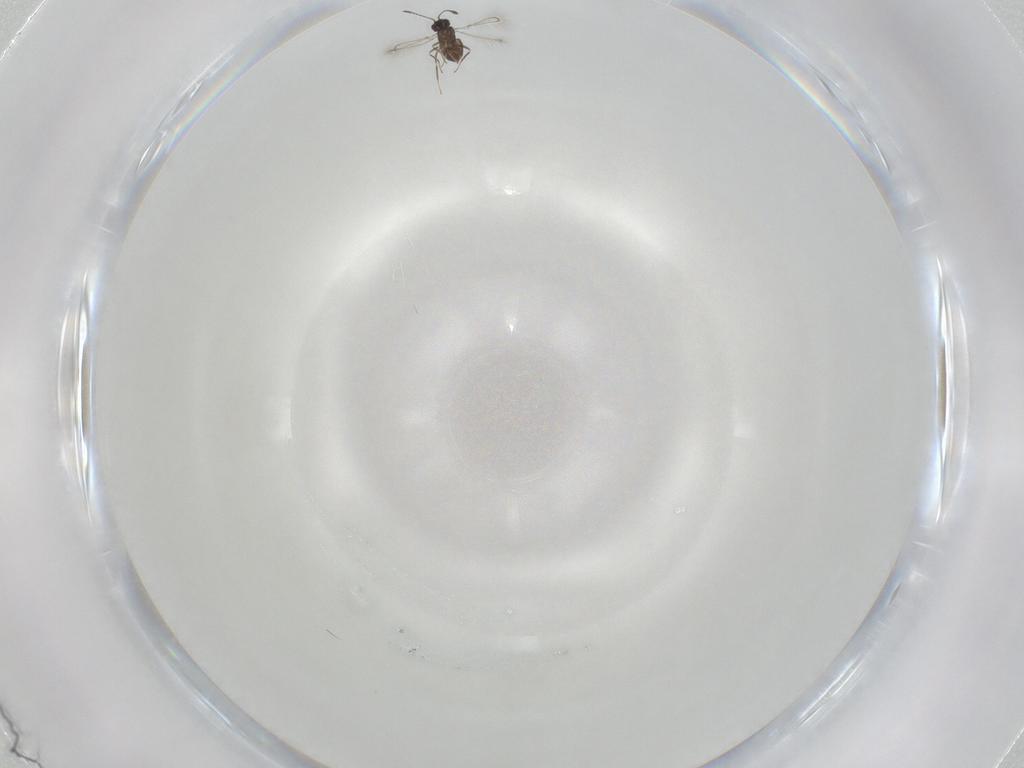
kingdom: Animalia
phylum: Arthropoda
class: Insecta
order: Hymenoptera
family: Mymaridae
